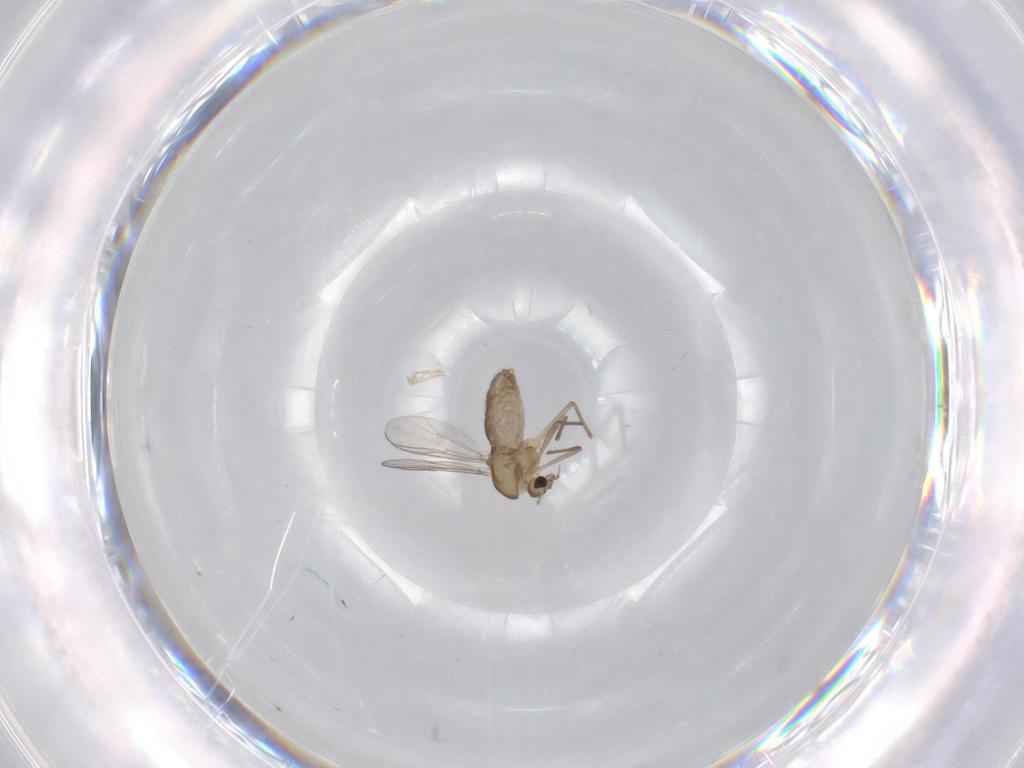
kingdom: Animalia
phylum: Arthropoda
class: Insecta
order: Diptera
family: Chironomidae
